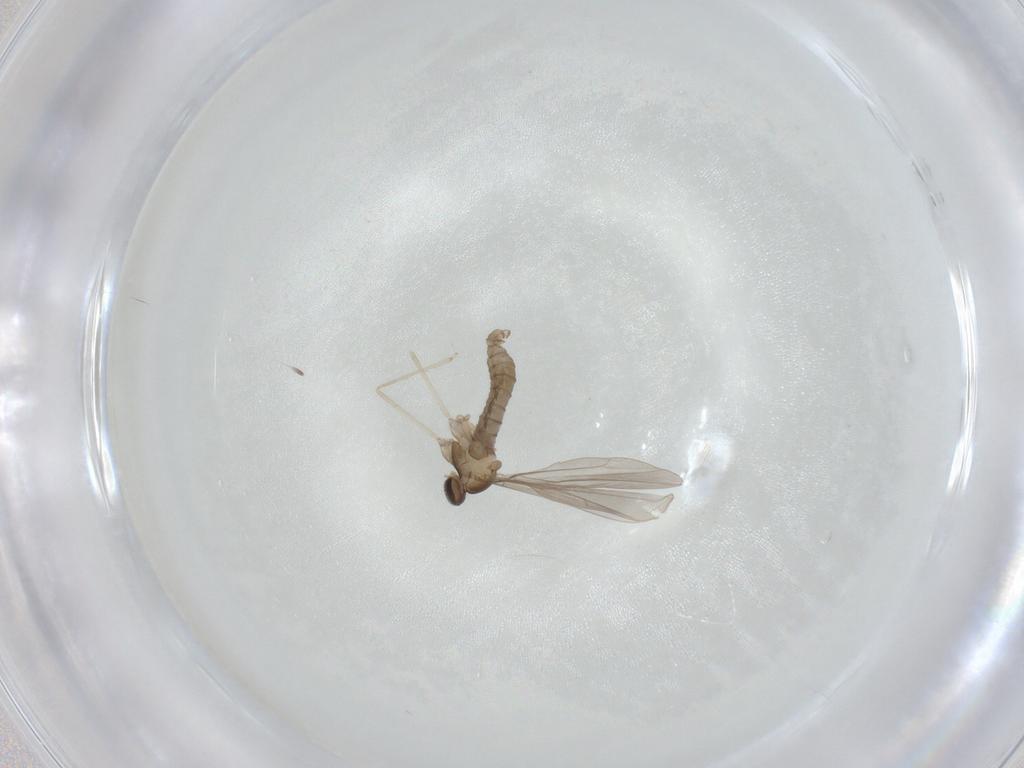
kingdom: Animalia
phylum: Arthropoda
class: Insecta
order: Diptera
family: Cecidomyiidae
